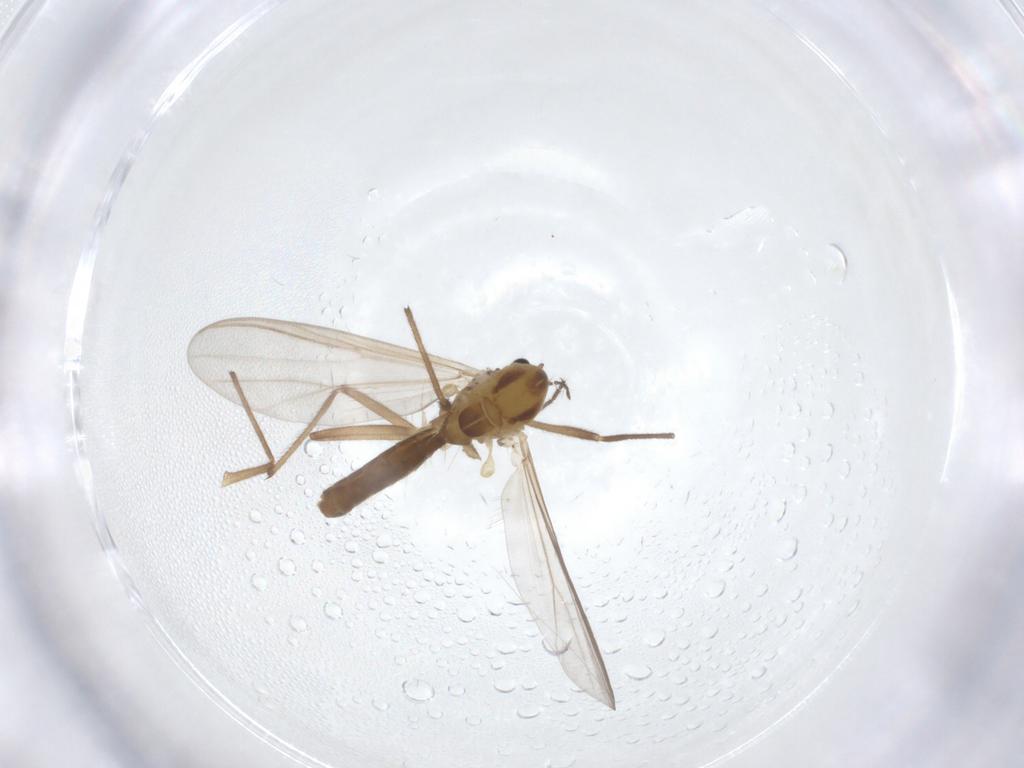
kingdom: Animalia
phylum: Arthropoda
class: Insecta
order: Diptera
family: Chironomidae
